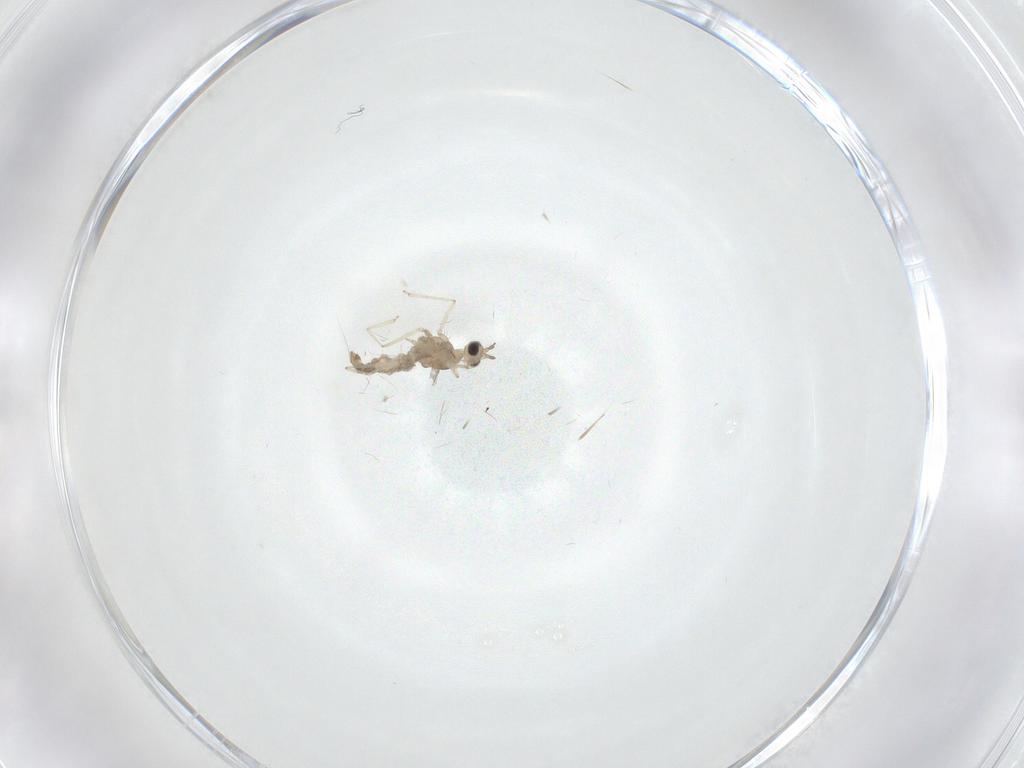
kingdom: Animalia
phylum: Arthropoda
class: Insecta
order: Diptera
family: Ceratopogonidae
